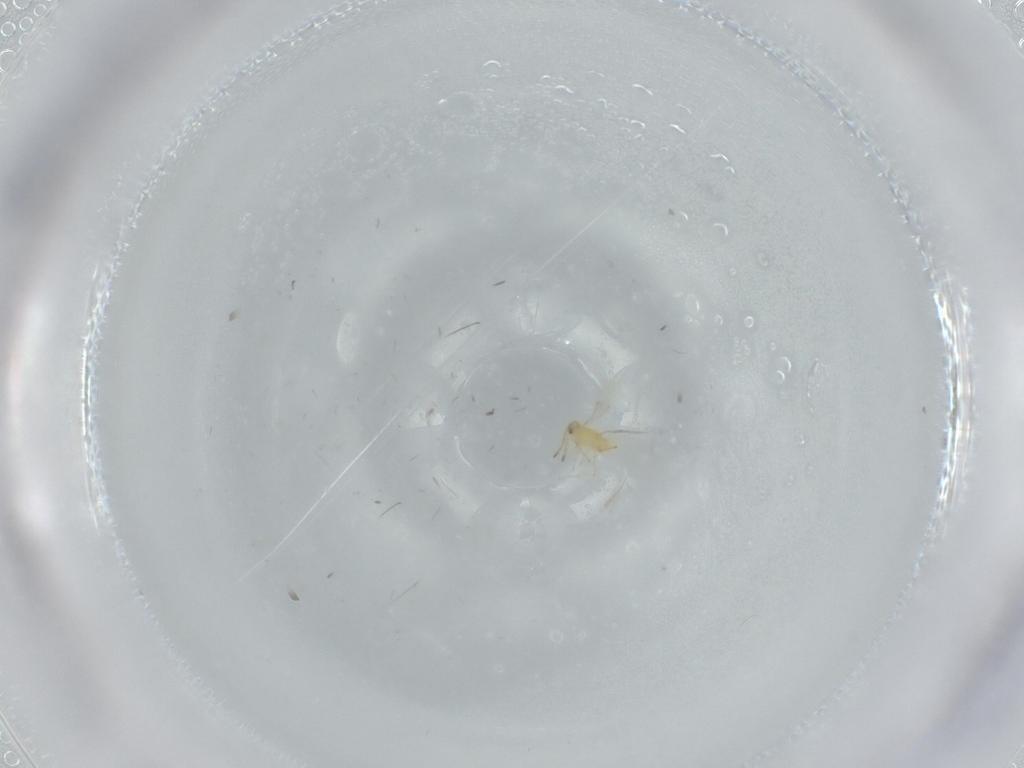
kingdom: Animalia
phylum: Arthropoda
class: Insecta
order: Hymenoptera
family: Aphelinidae
